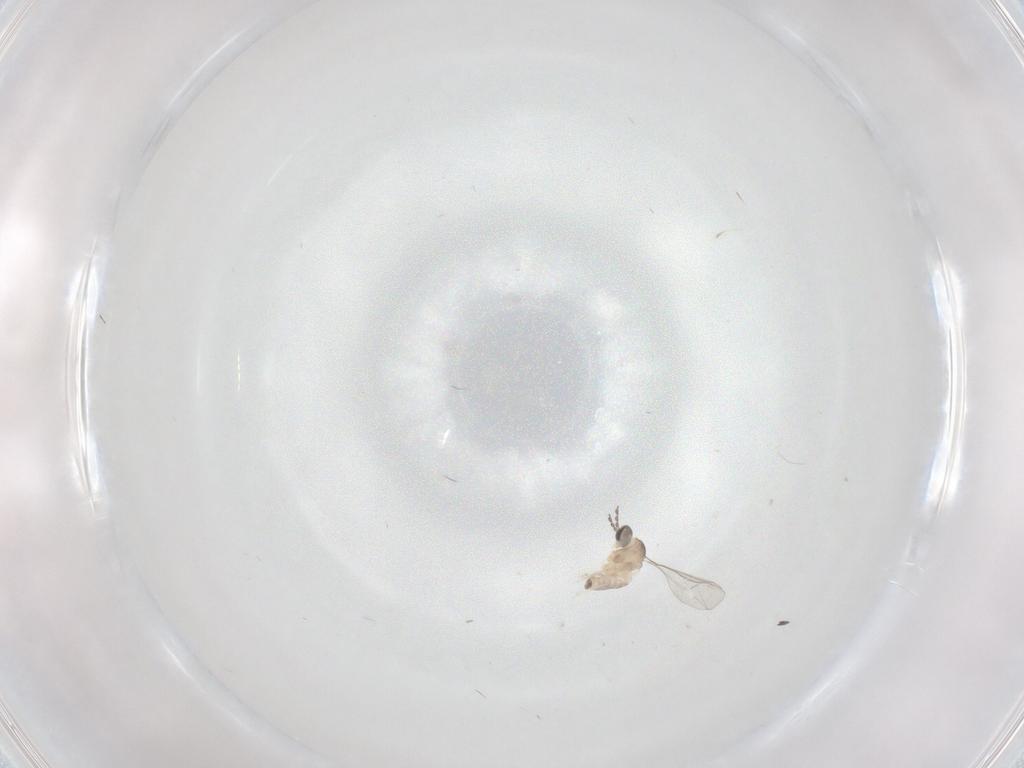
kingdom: Animalia
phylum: Arthropoda
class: Insecta
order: Diptera
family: Cecidomyiidae
